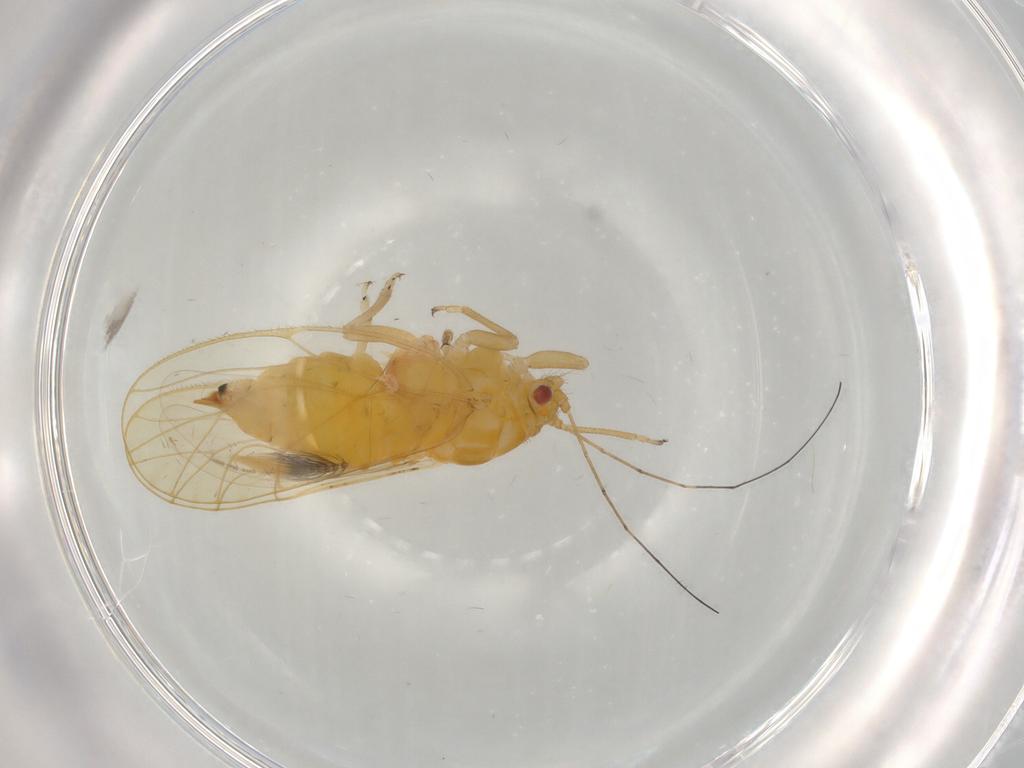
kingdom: Animalia
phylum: Arthropoda
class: Insecta
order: Hemiptera
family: Psyllidae
